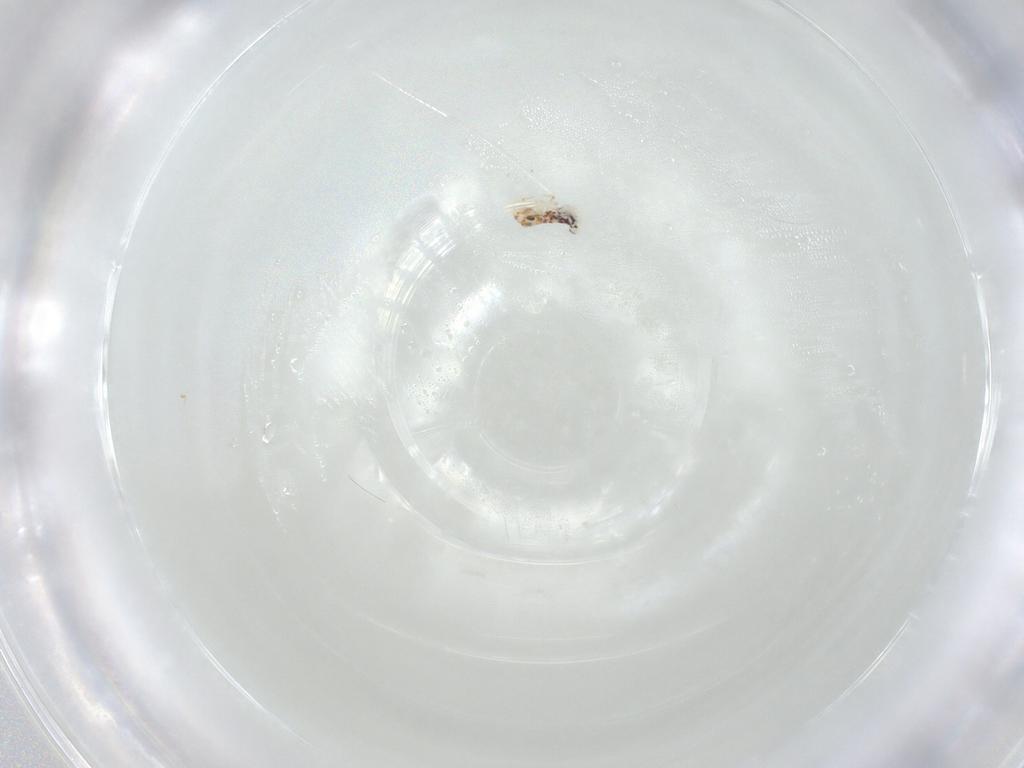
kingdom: Animalia
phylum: Arthropoda
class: Collembola
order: Symphypleona
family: Bourletiellidae
